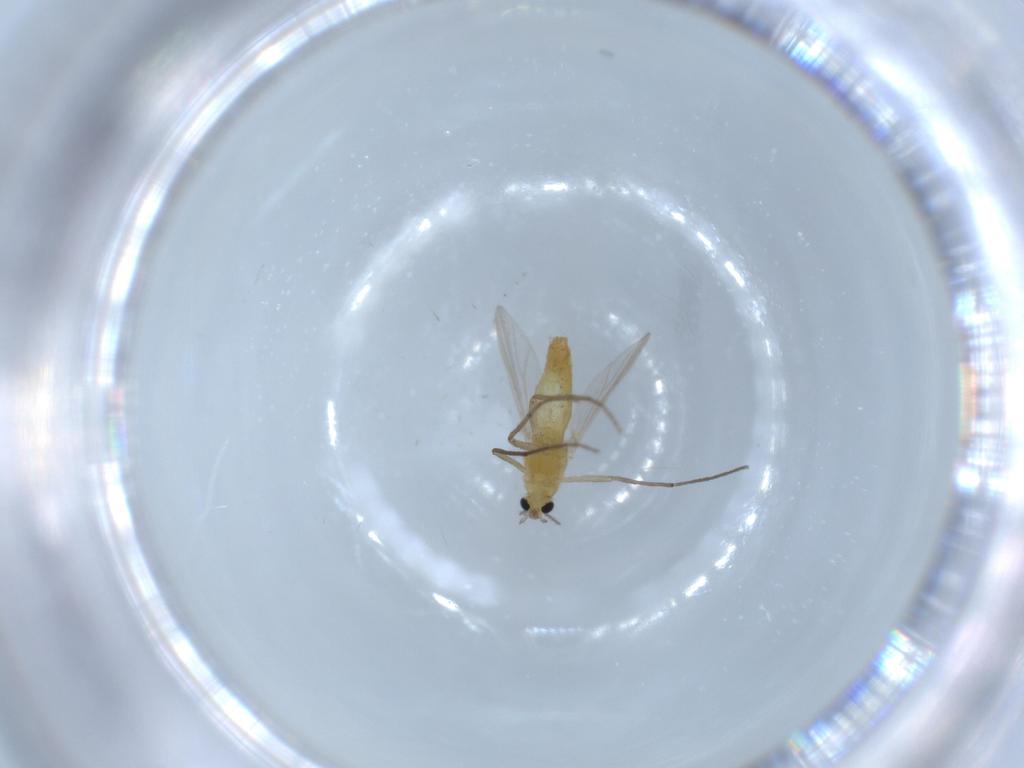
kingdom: Animalia
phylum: Arthropoda
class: Insecta
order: Diptera
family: Chironomidae
